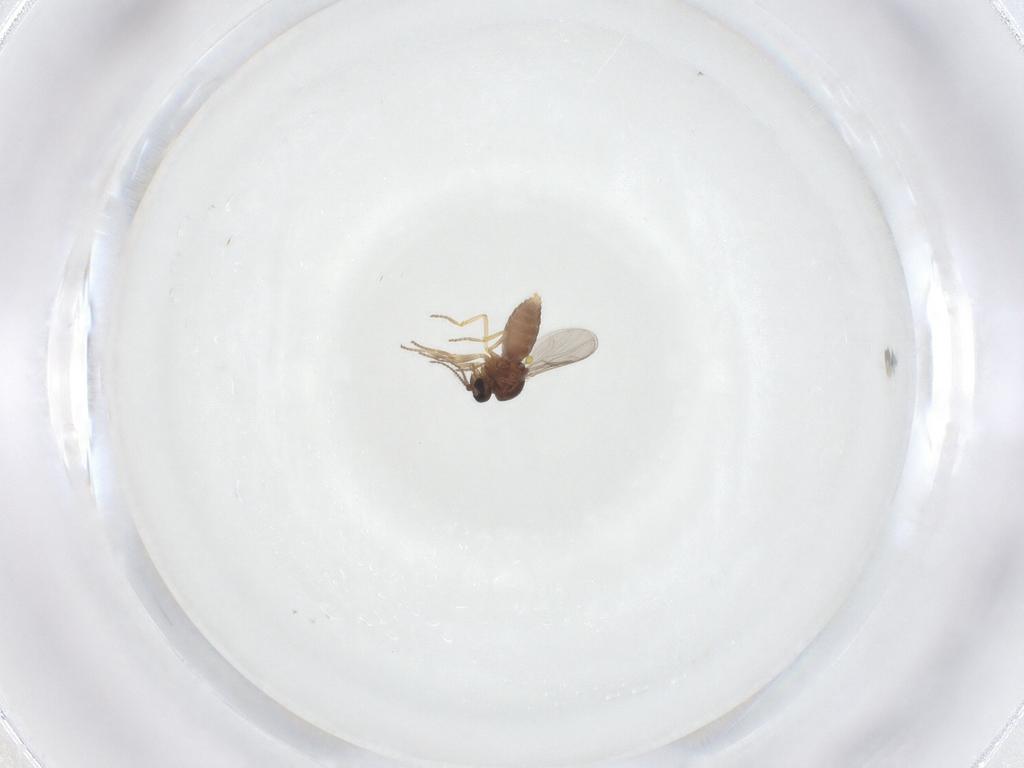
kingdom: Animalia
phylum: Arthropoda
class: Insecta
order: Diptera
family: Ceratopogonidae
